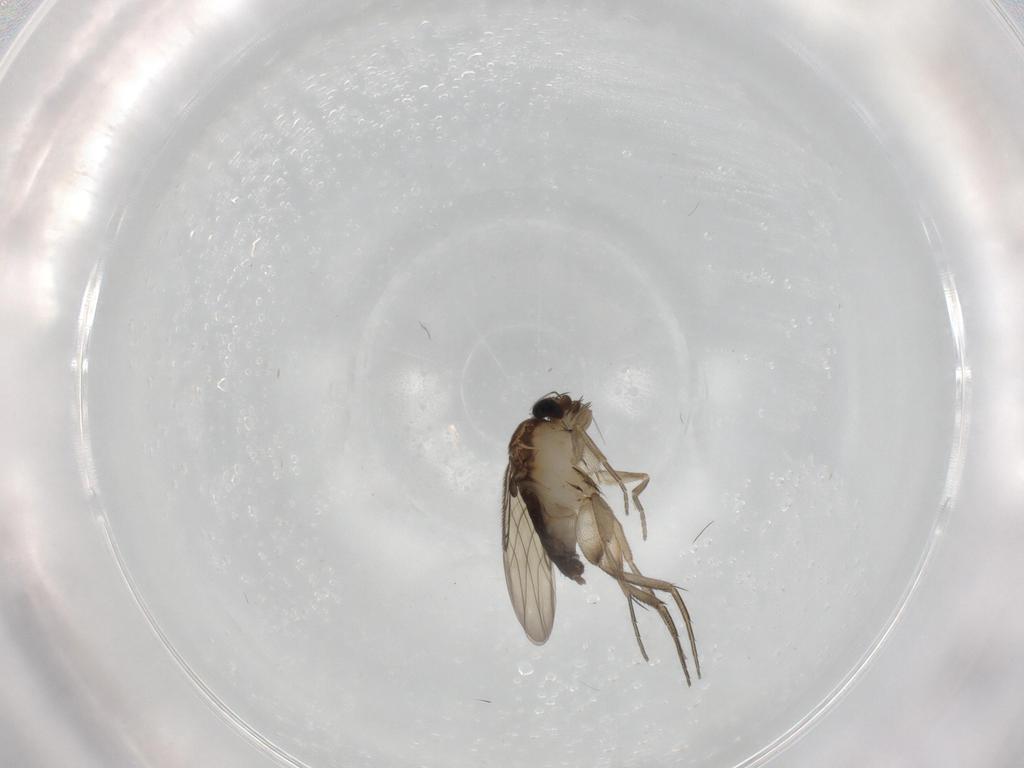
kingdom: Animalia
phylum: Arthropoda
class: Insecta
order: Diptera
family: Phoridae
